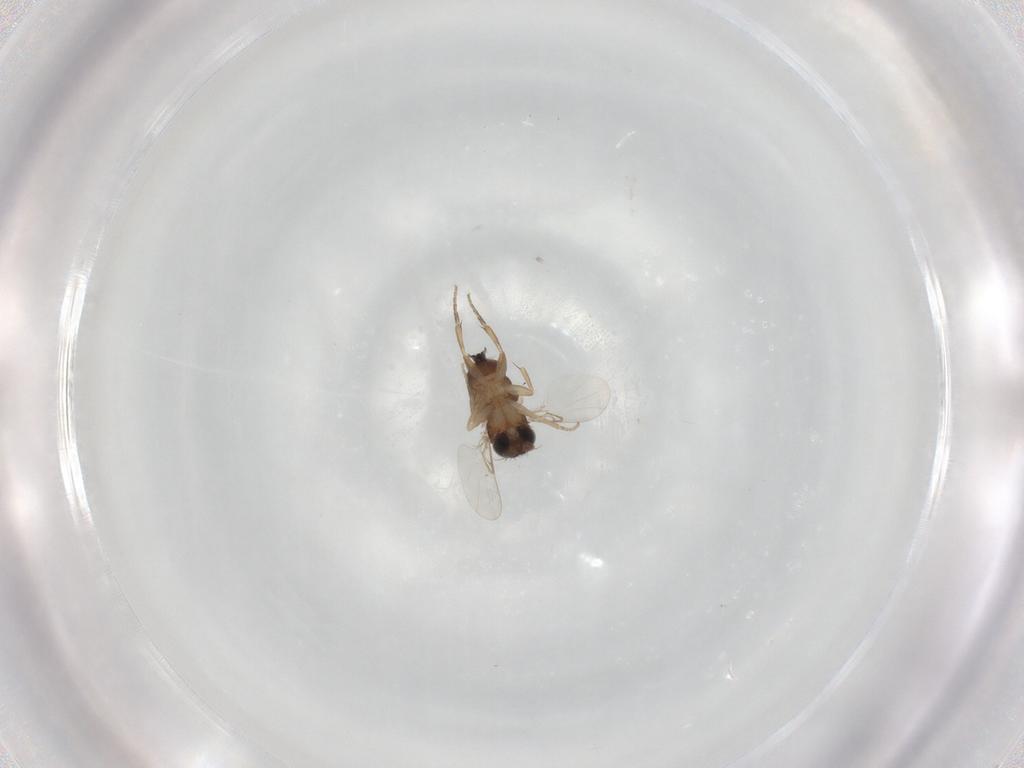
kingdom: Animalia
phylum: Arthropoda
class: Insecta
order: Diptera
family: Phoridae
